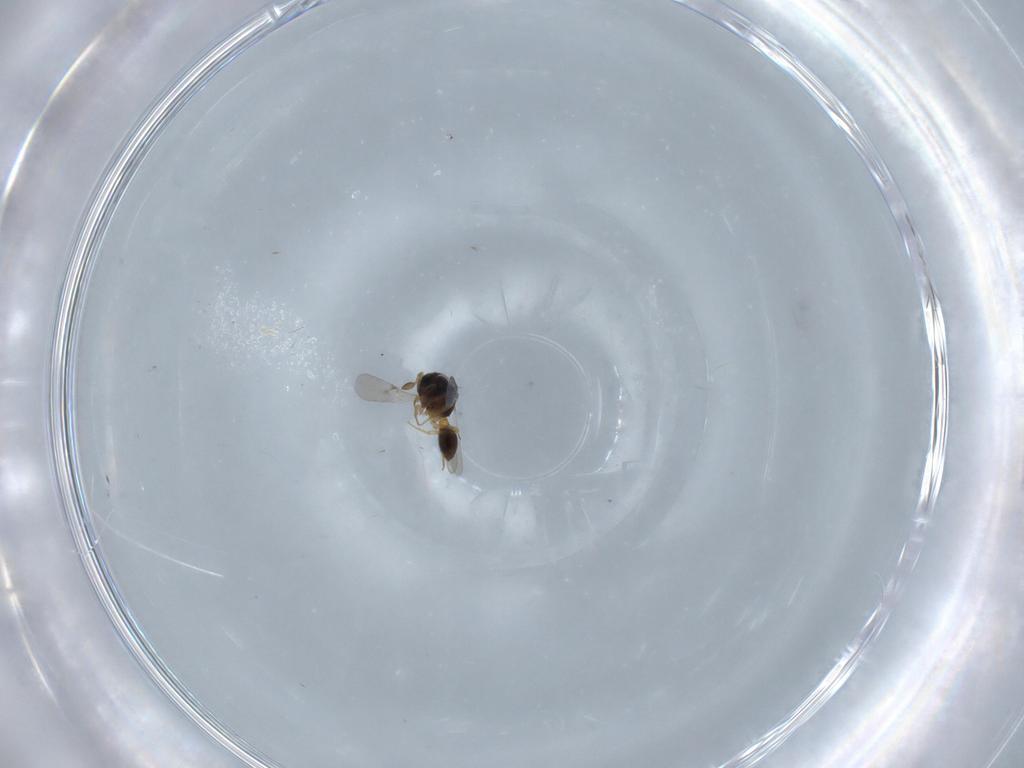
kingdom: Animalia
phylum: Arthropoda
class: Insecta
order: Hymenoptera
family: Scelionidae
